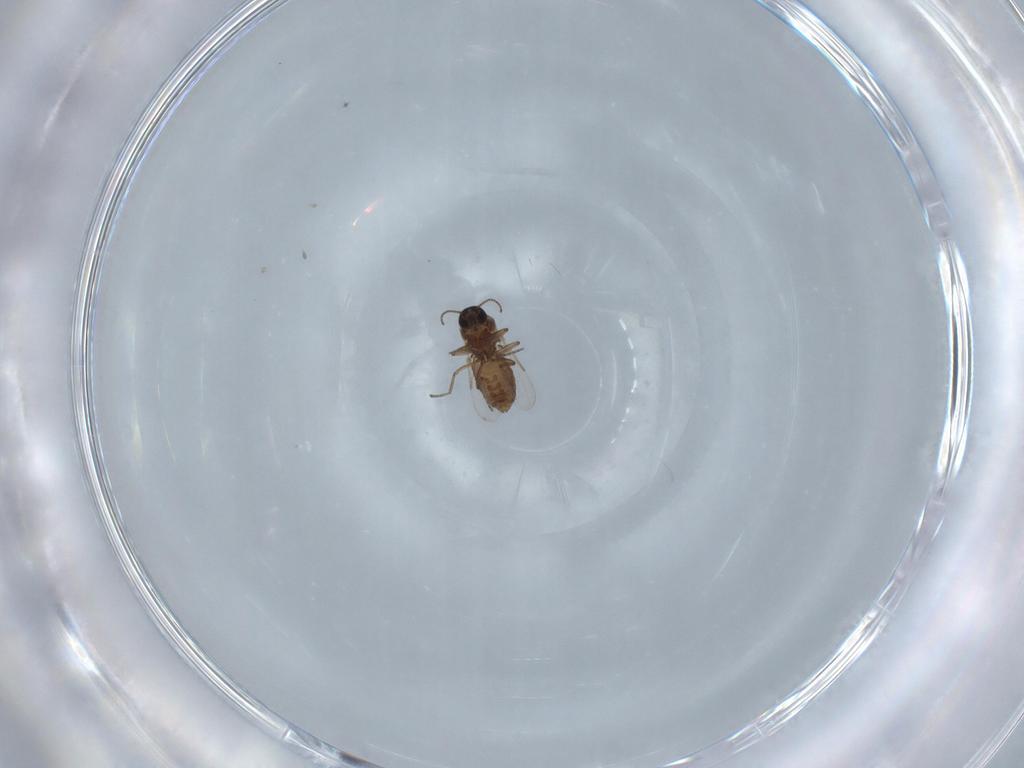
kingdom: Animalia
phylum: Arthropoda
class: Insecta
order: Diptera
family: Ceratopogonidae
